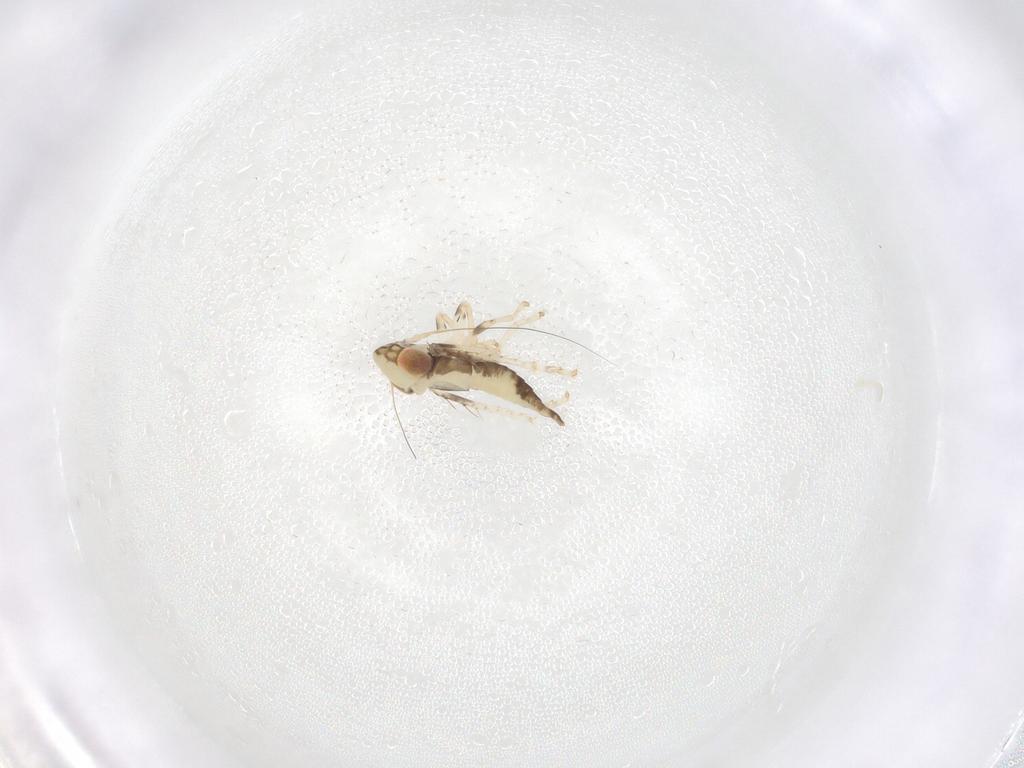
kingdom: Animalia
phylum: Arthropoda
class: Insecta
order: Hemiptera
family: Cicadellidae
